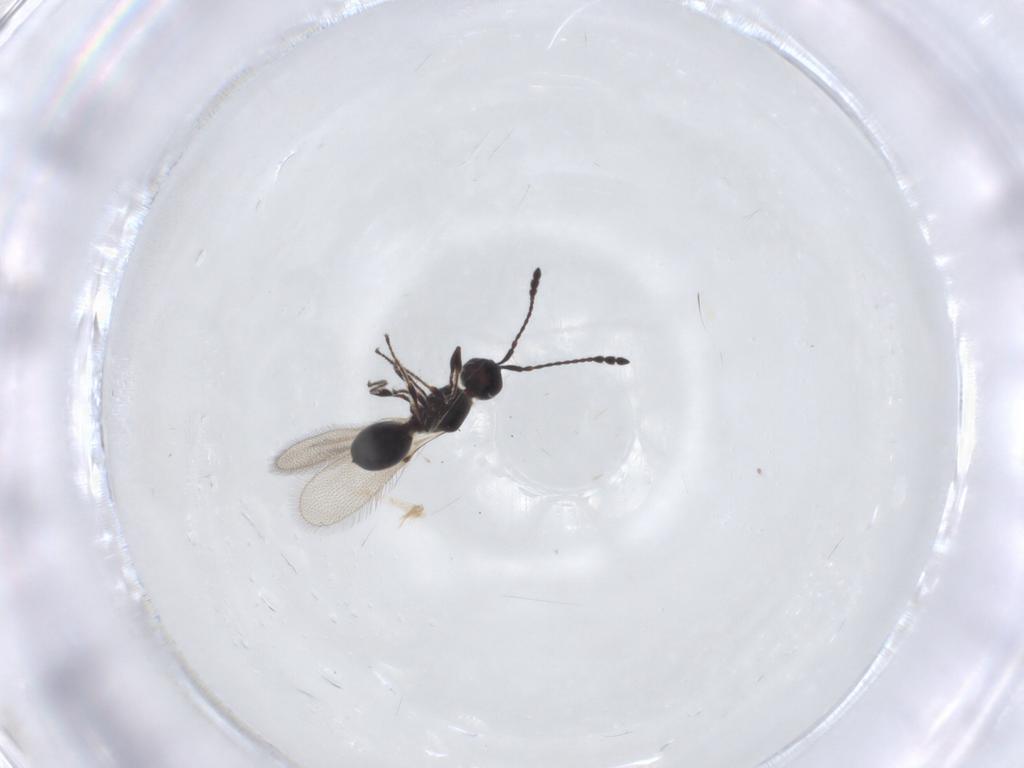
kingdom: Animalia
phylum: Arthropoda
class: Insecta
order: Hymenoptera
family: Diapriidae
